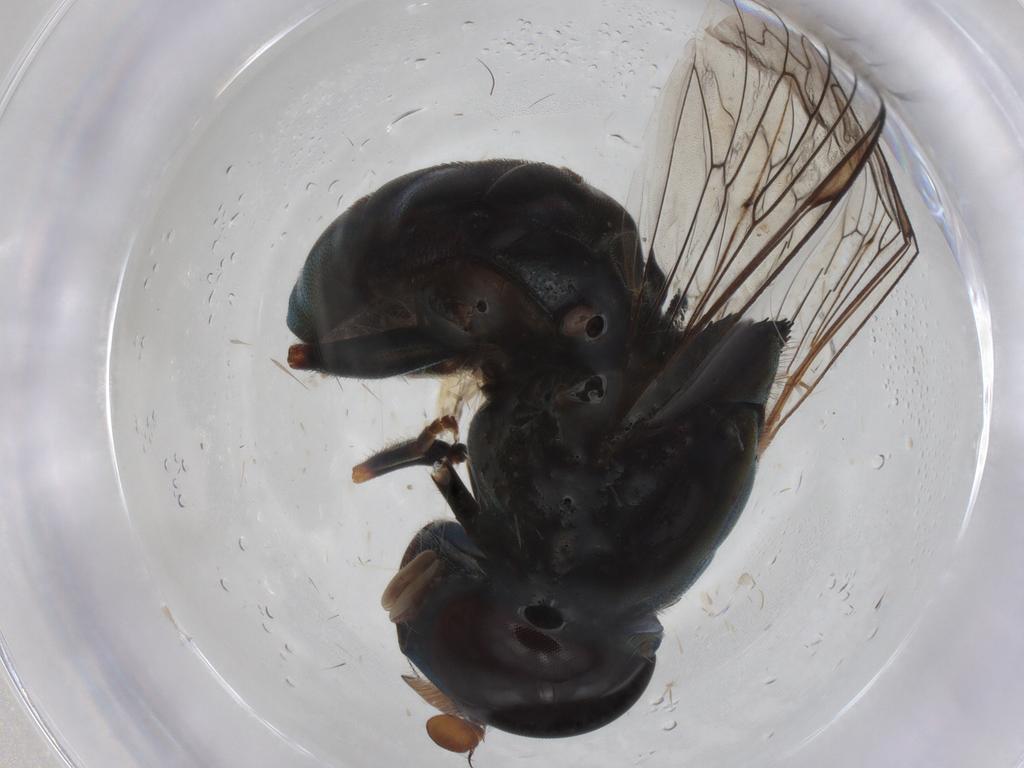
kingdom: Animalia
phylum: Arthropoda
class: Insecta
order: Diptera
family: Syrphidae
